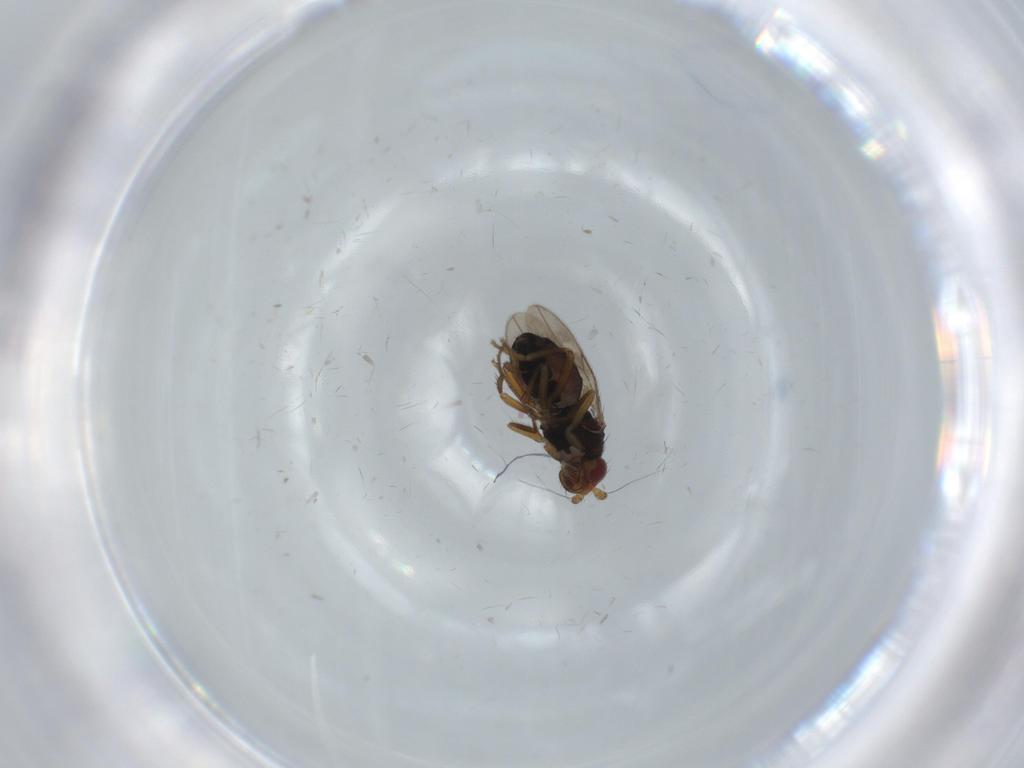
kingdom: Animalia
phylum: Arthropoda
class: Insecta
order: Diptera
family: Sphaeroceridae
